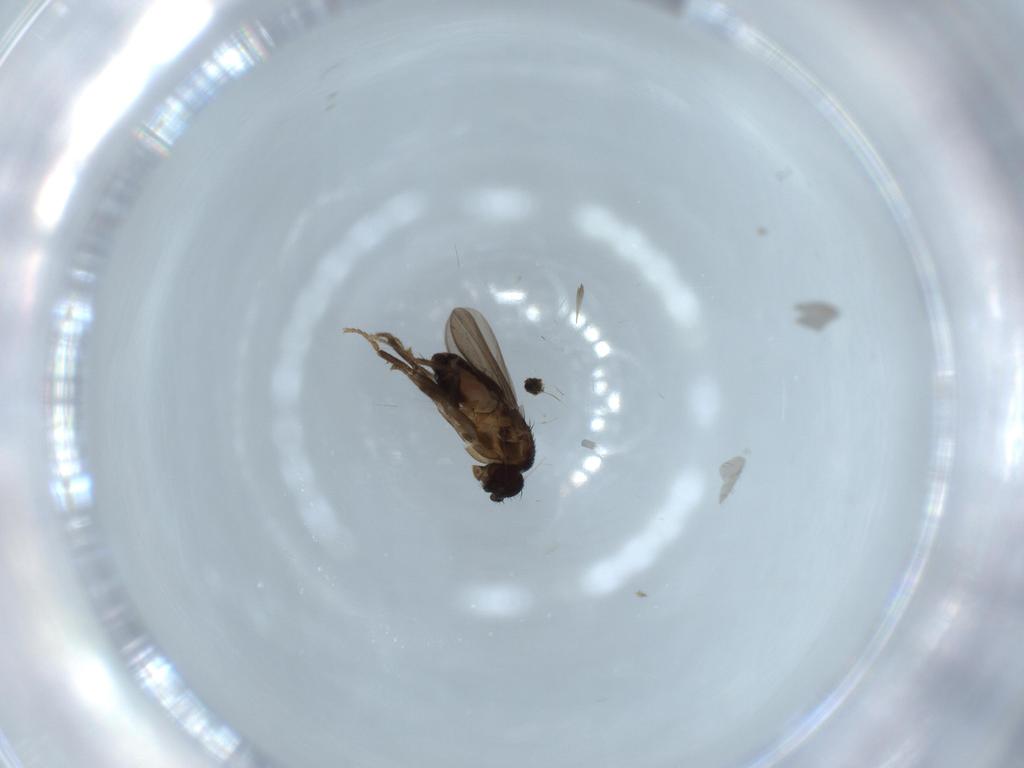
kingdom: Animalia
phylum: Arthropoda
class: Insecta
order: Diptera
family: Sphaeroceridae
